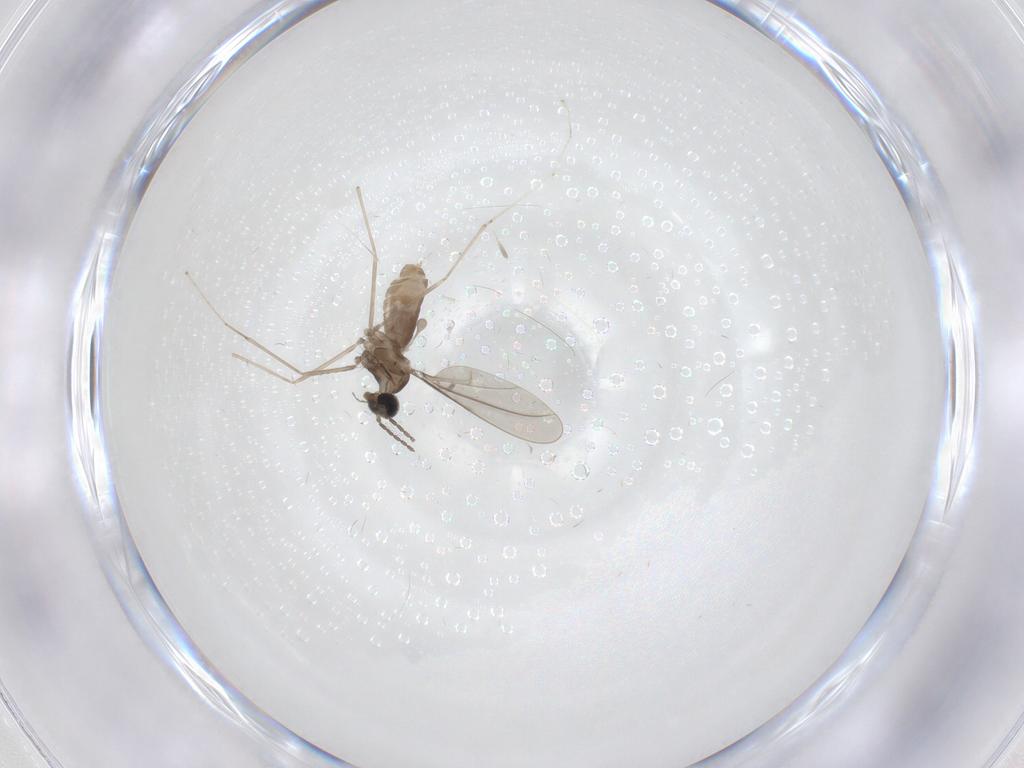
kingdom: Animalia
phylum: Arthropoda
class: Insecta
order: Diptera
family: Cecidomyiidae
